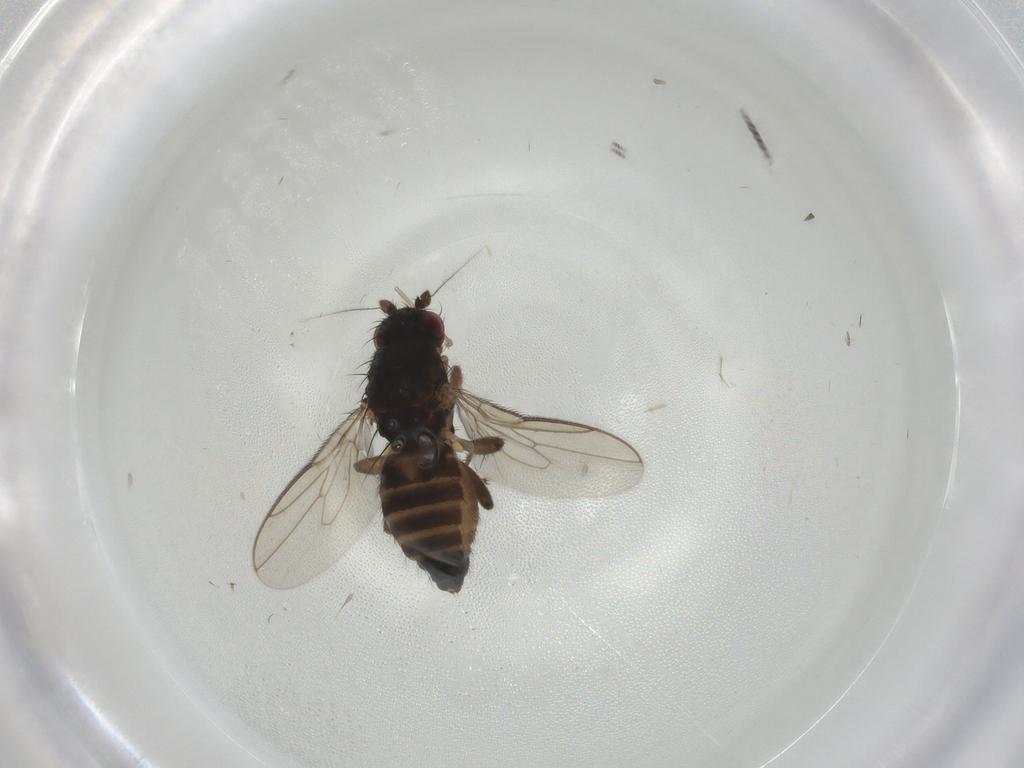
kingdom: Animalia
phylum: Arthropoda
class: Insecta
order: Diptera
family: Sphaeroceridae
